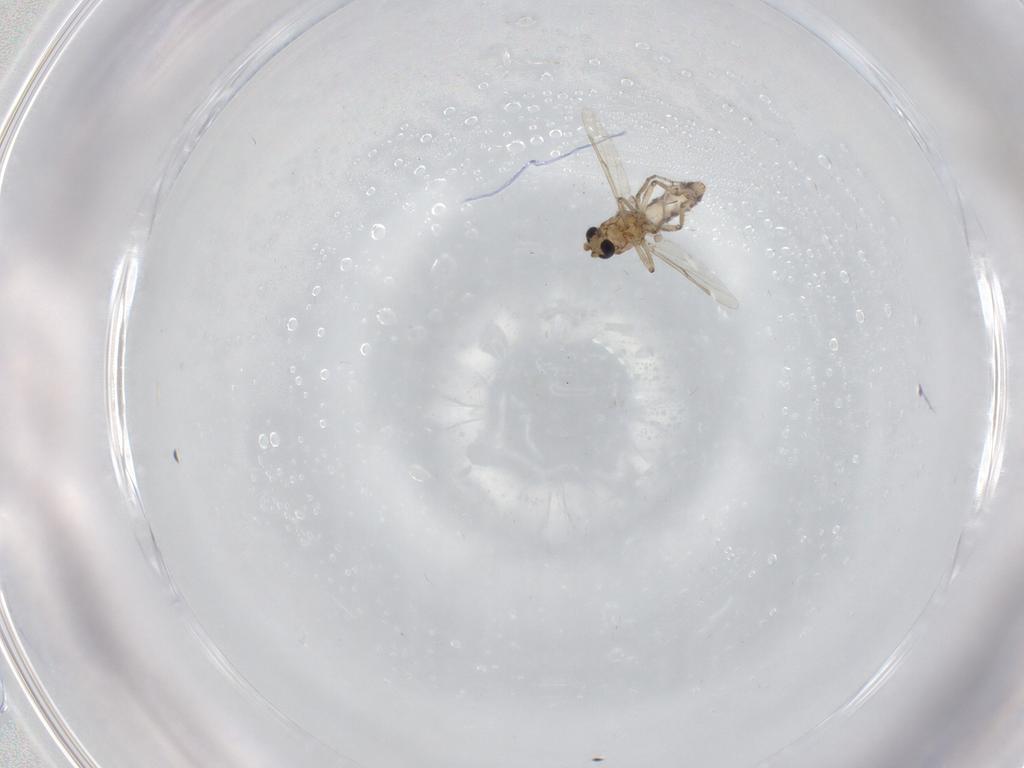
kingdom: Animalia
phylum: Arthropoda
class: Insecta
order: Diptera
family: Ceratopogonidae
